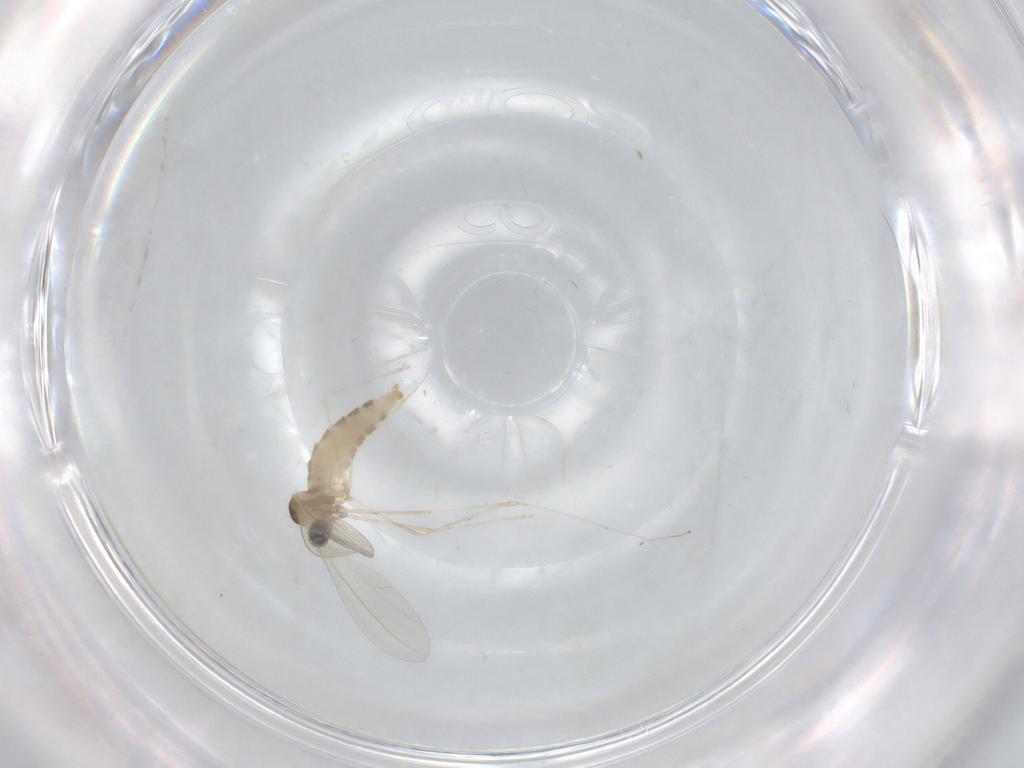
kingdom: Animalia
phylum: Arthropoda
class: Insecta
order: Diptera
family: Phoridae
